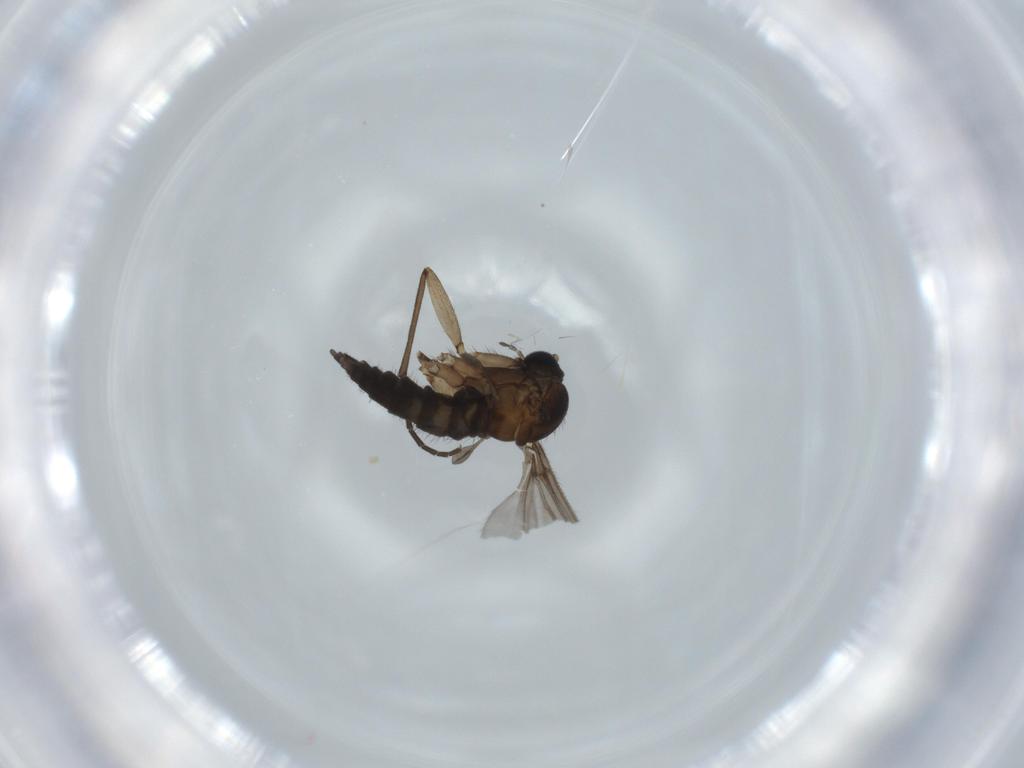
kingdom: Animalia
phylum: Arthropoda
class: Insecta
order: Diptera
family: Sciaridae
